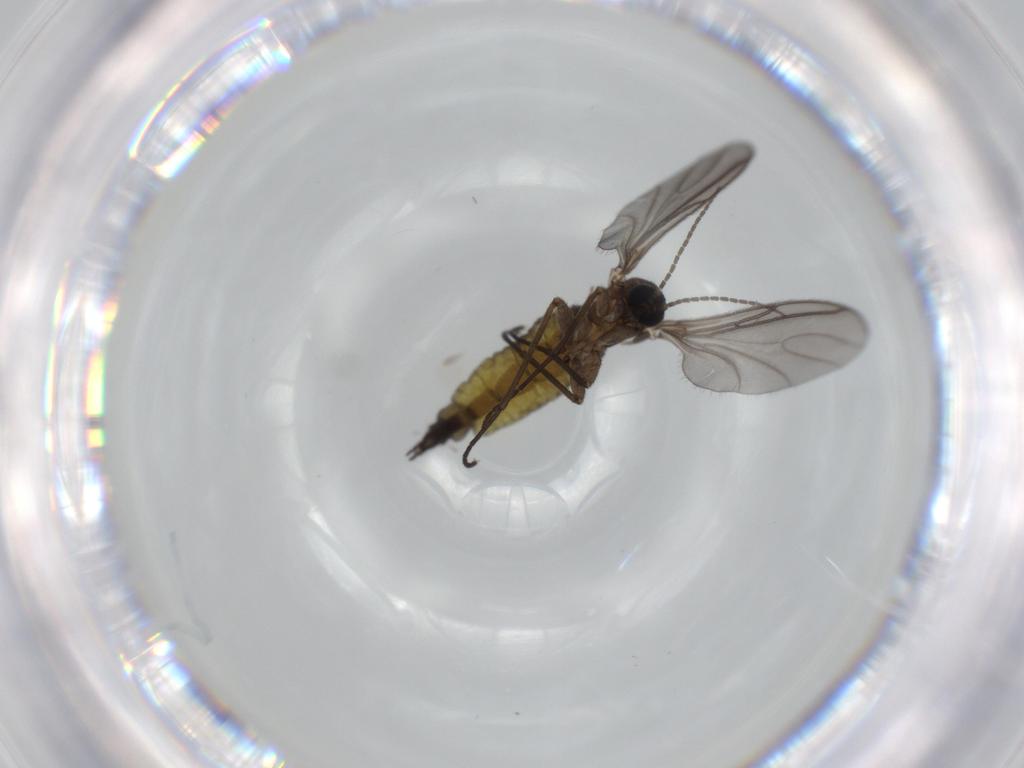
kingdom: Animalia
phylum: Arthropoda
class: Insecta
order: Diptera
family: Sciaridae
